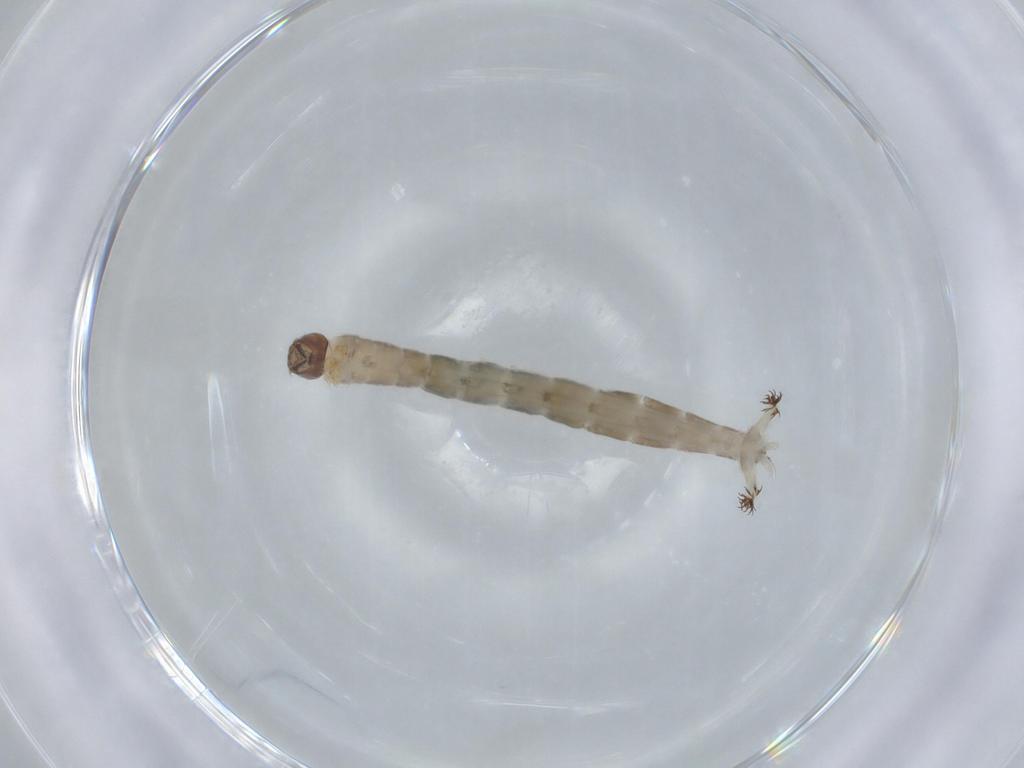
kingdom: Animalia
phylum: Arthropoda
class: Insecta
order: Diptera
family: Chironomidae
